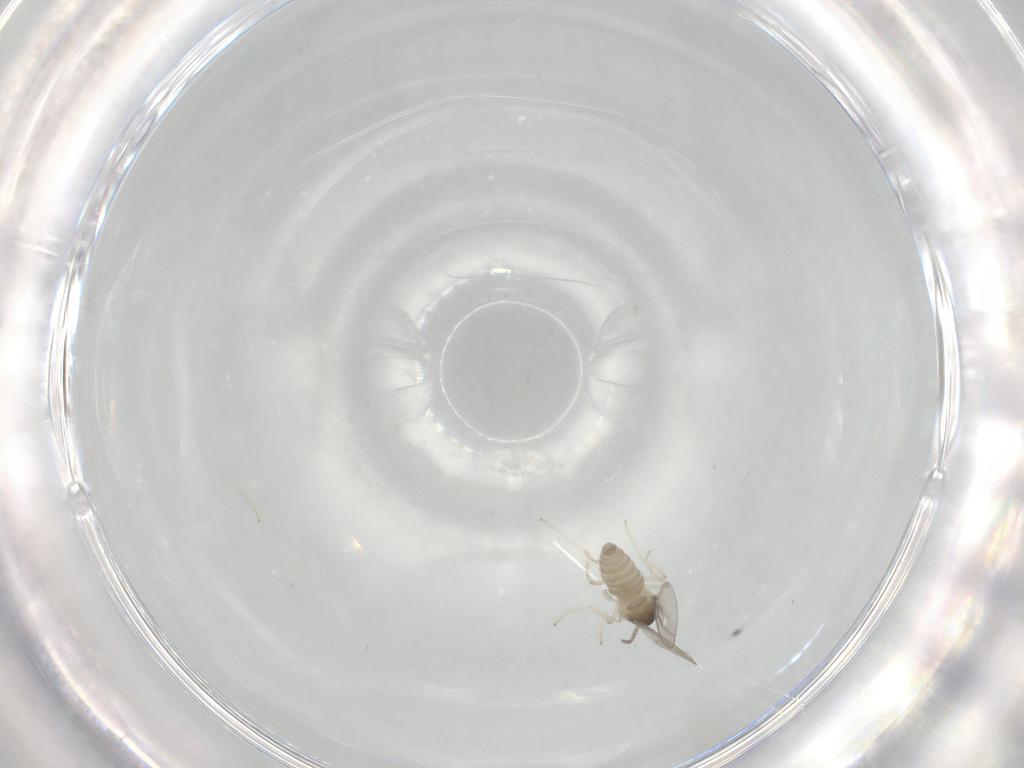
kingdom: Animalia
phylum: Arthropoda
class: Insecta
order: Diptera
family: Cecidomyiidae
